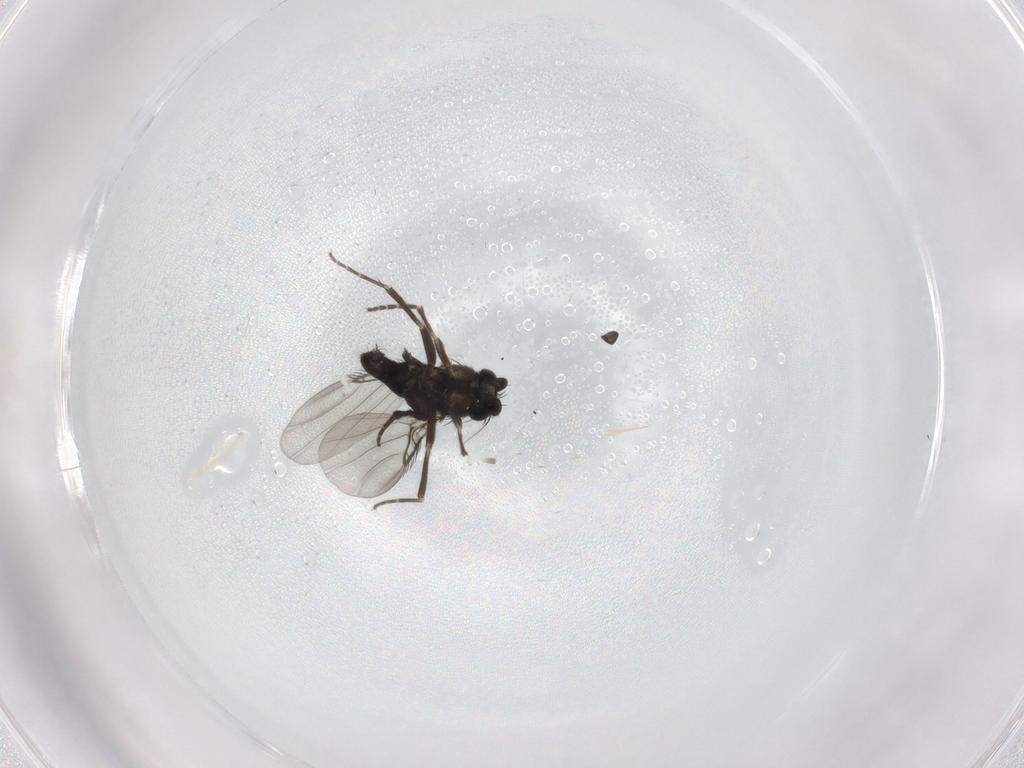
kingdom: Animalia
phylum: Arthropoda
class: Insecta
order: Diptera
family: Phoridae
